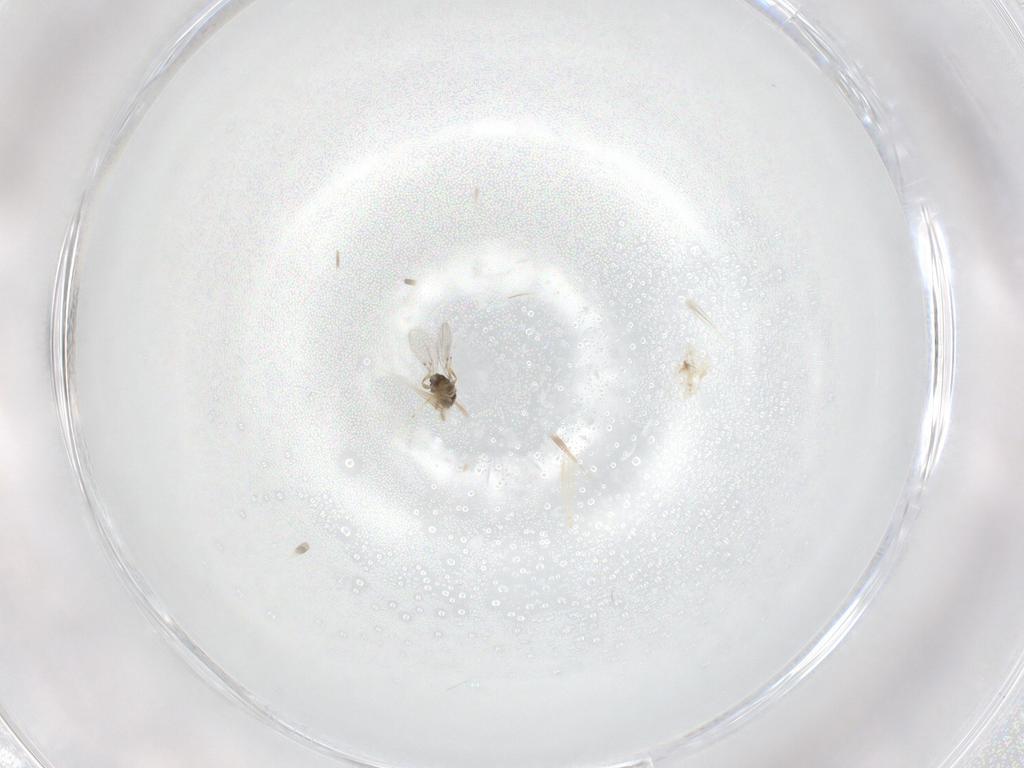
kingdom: Animalia
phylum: Arthropoda
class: Insecta
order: Hymenoptera
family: Encyrtidae
